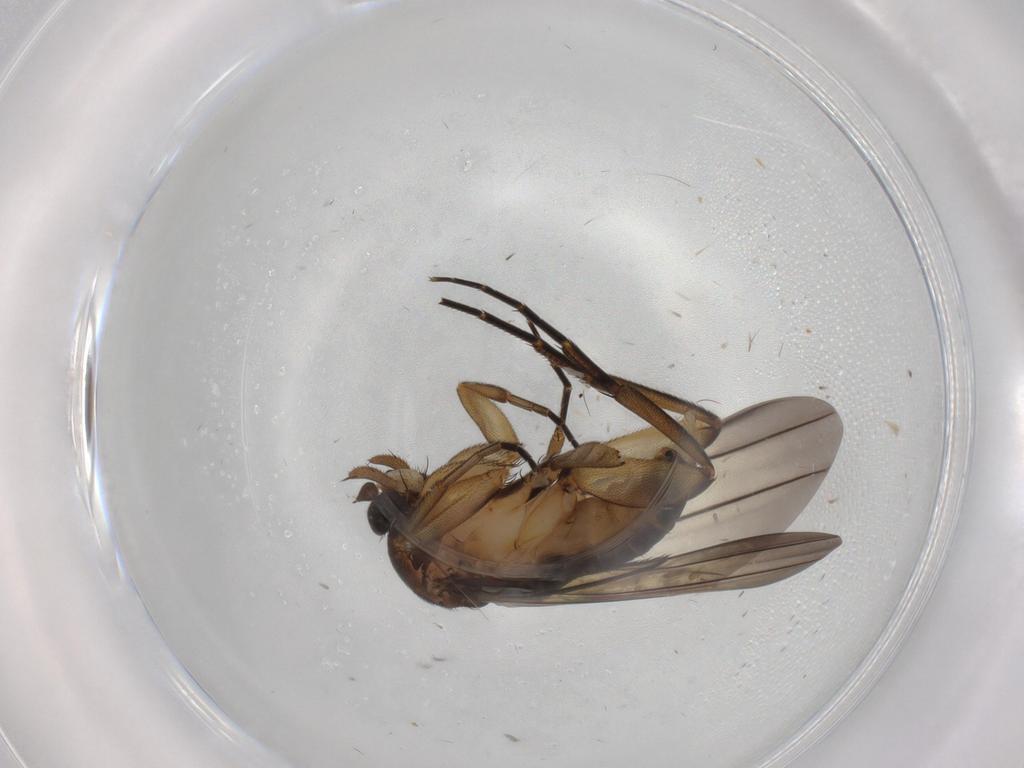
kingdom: Animalia
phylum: Arthropoda
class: Insecta
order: Diptera
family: Phoridae
